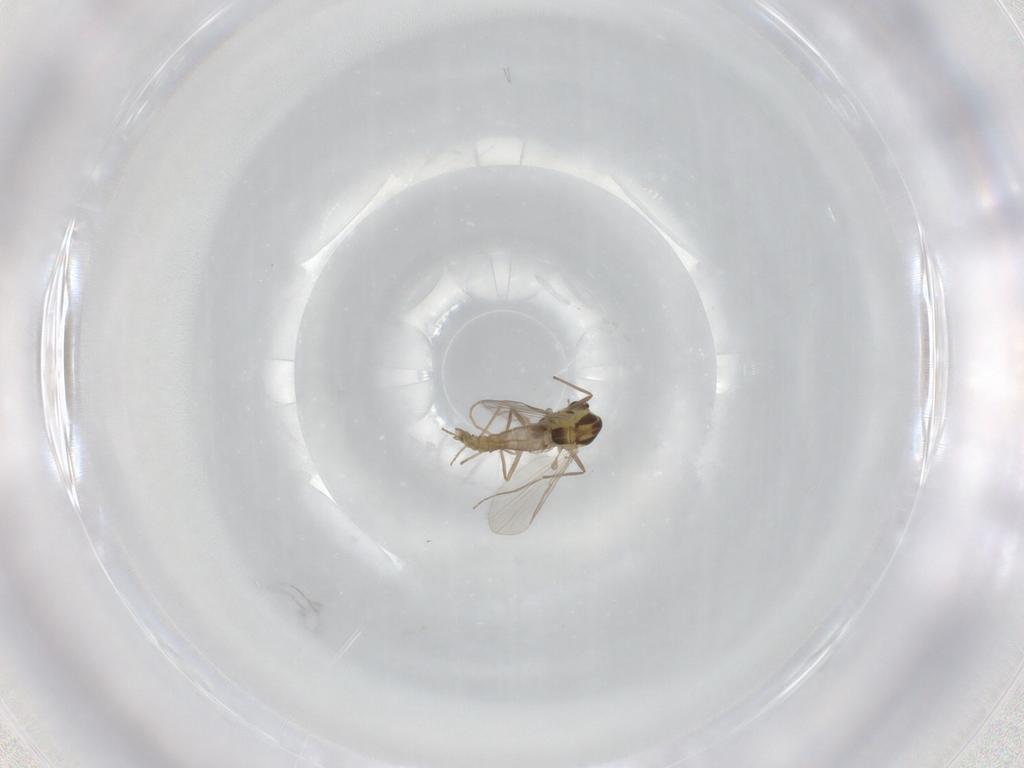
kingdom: Animalia
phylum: Arthropoda
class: Insecta
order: Diptera
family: Chironomidae
